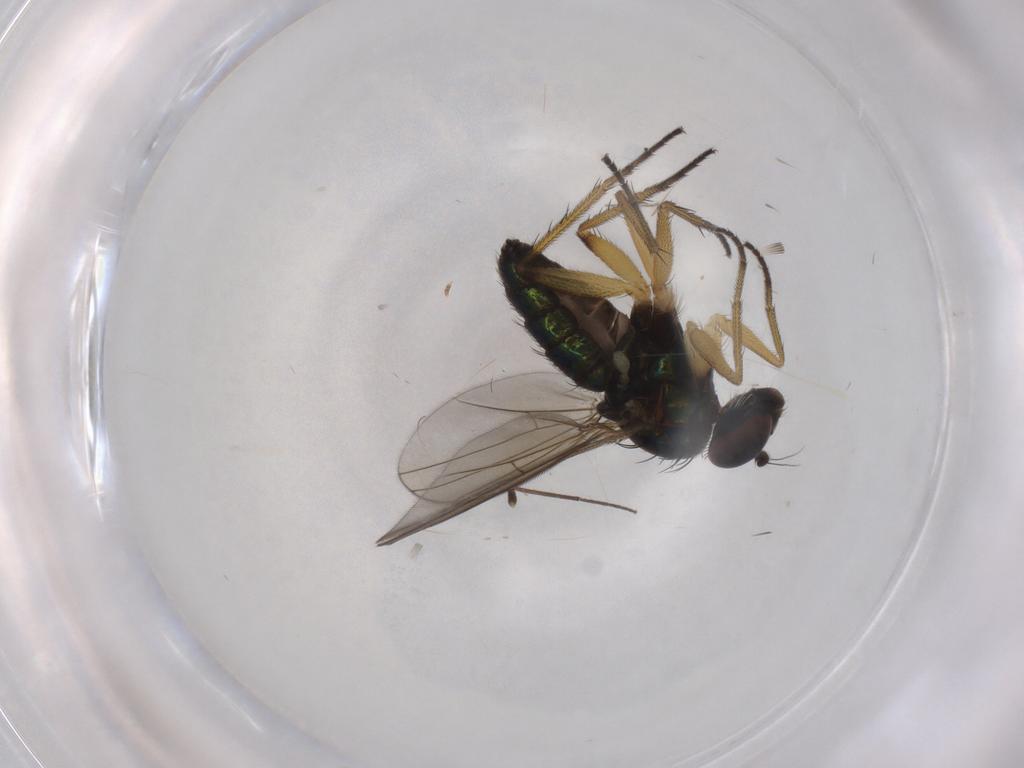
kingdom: Animalia
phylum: Arthropoda
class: Insecta
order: Diptera
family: Chironomidae
